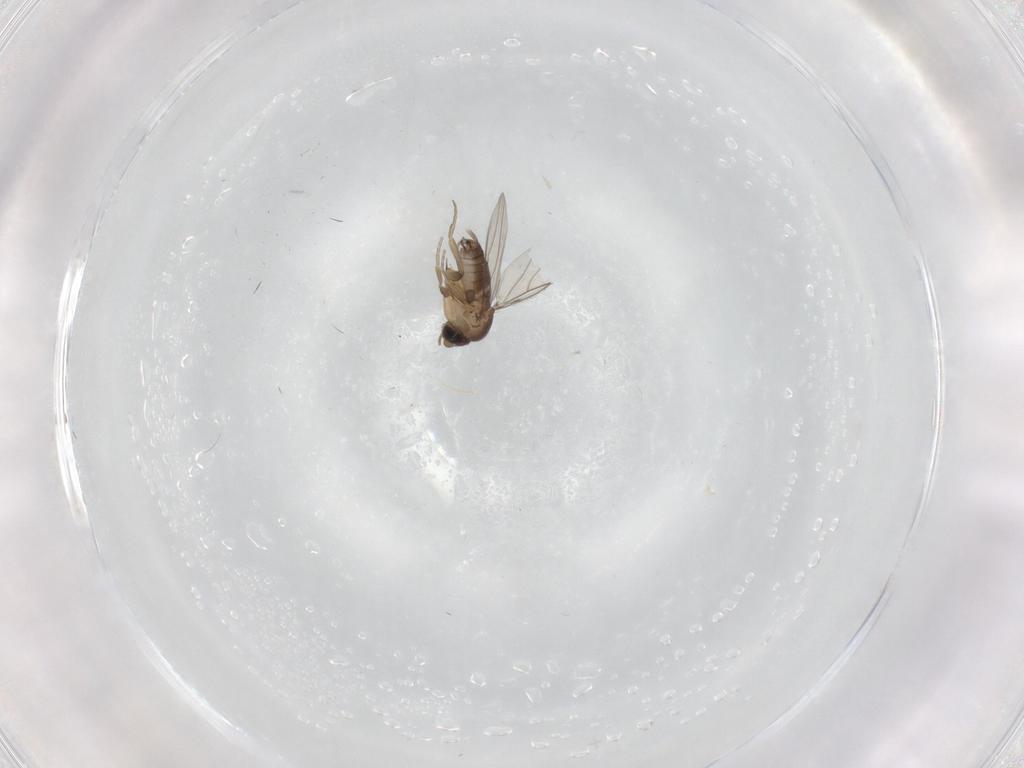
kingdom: Animalia
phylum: Arthropoda
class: Insecta
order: Diptera
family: Phoridae
